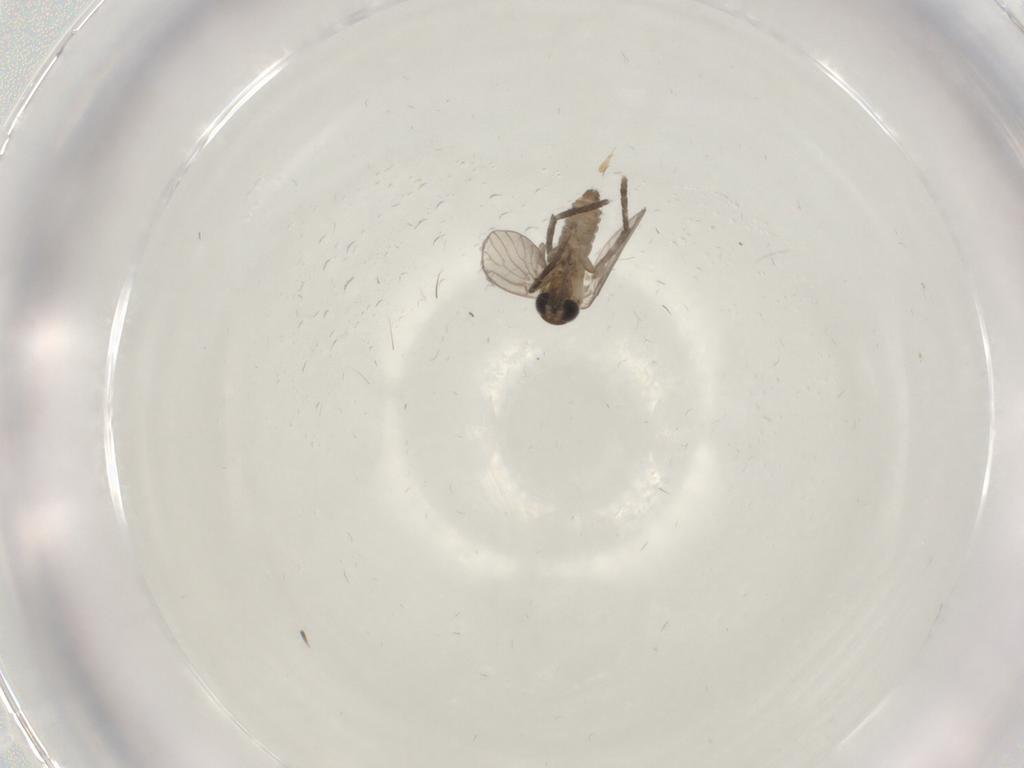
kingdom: Animalia
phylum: Arthropoda
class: Insecta
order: Diptera
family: Chironomidae
